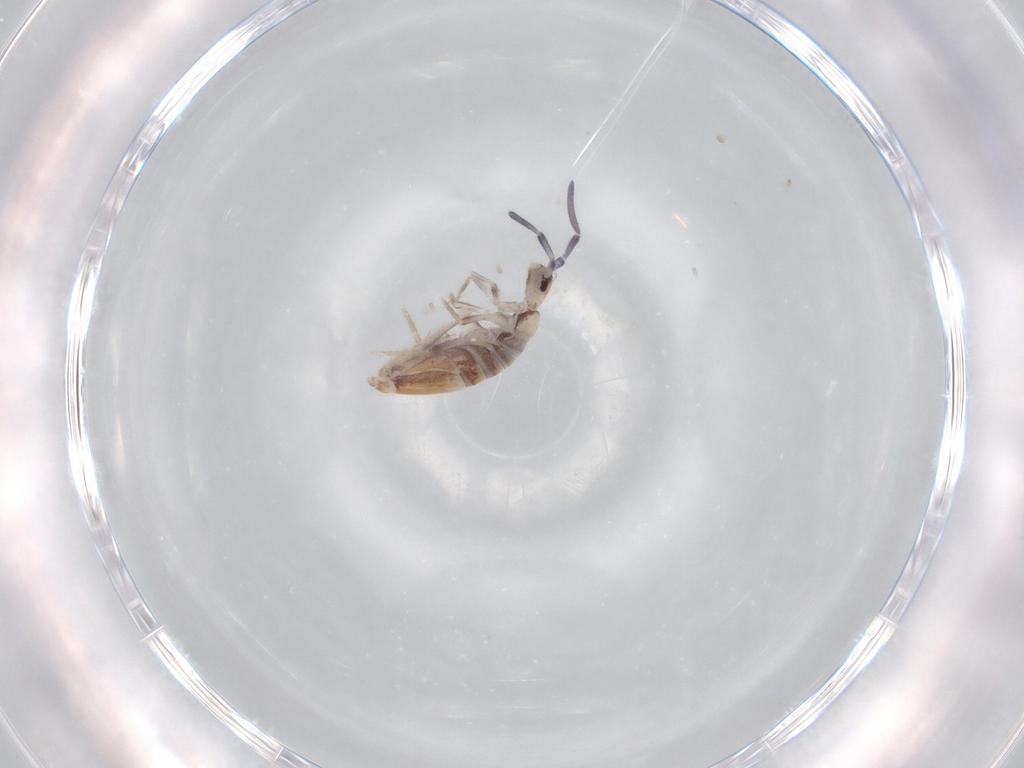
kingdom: Animalia
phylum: Arthropoda
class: Collembola
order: Poduromorpha
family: Hypogastruridae
